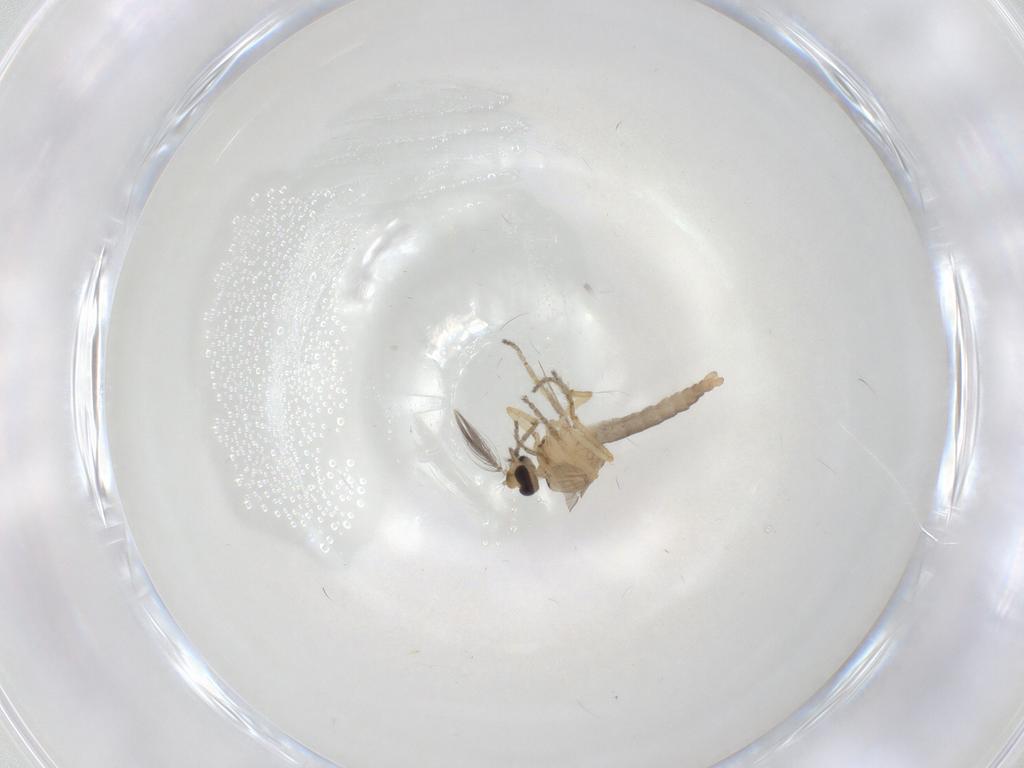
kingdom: Animalia
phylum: Arthropoda
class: Insecta
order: Diptera
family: Ceratopogonidae
